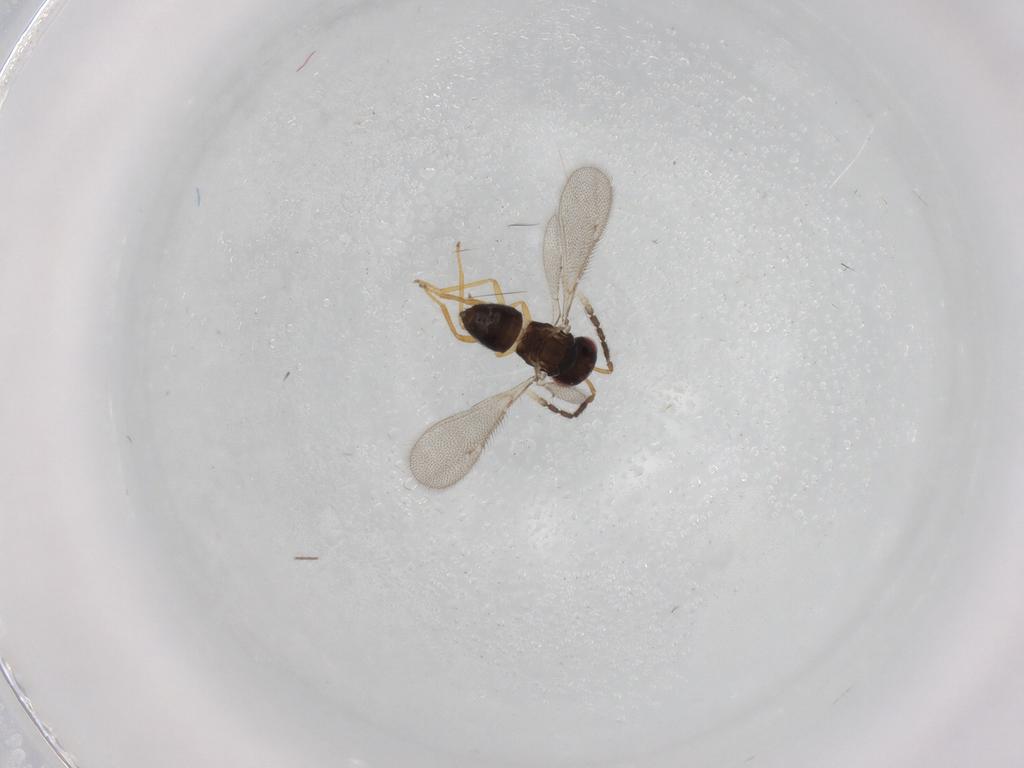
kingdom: Animalia
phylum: Arthropoda
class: Insecta
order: Hymenoptera
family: Eulophidae
